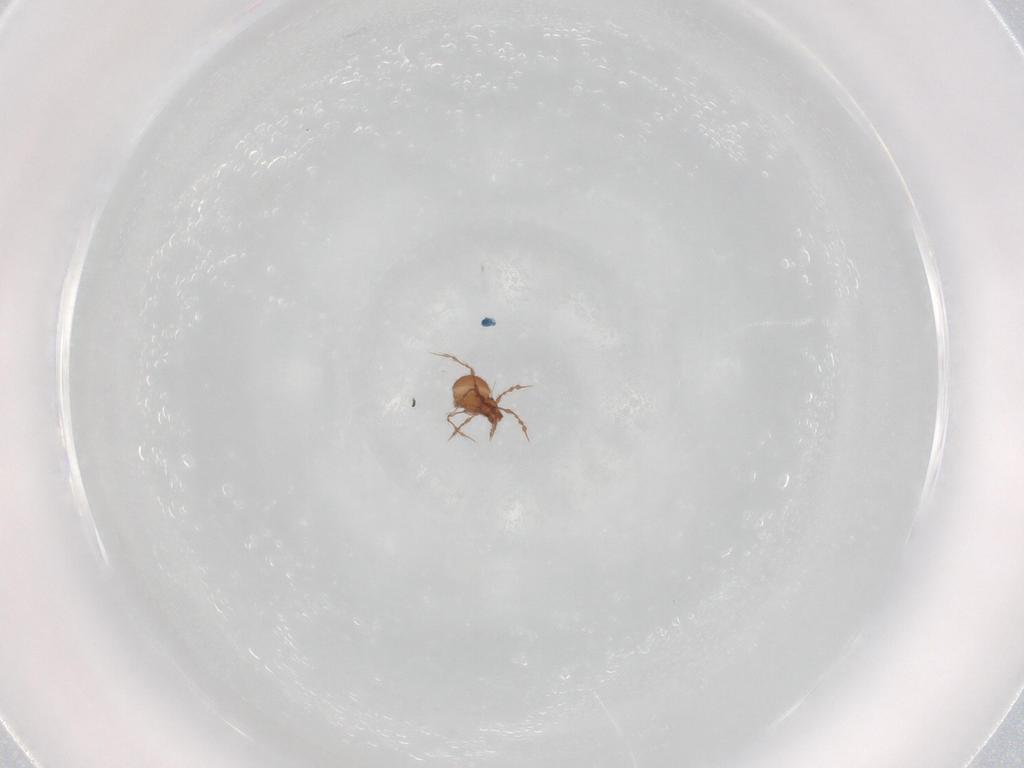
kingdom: Animalia
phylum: Arthropoda
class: Arachnida
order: Sarcoptiformes
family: Damaeidae
